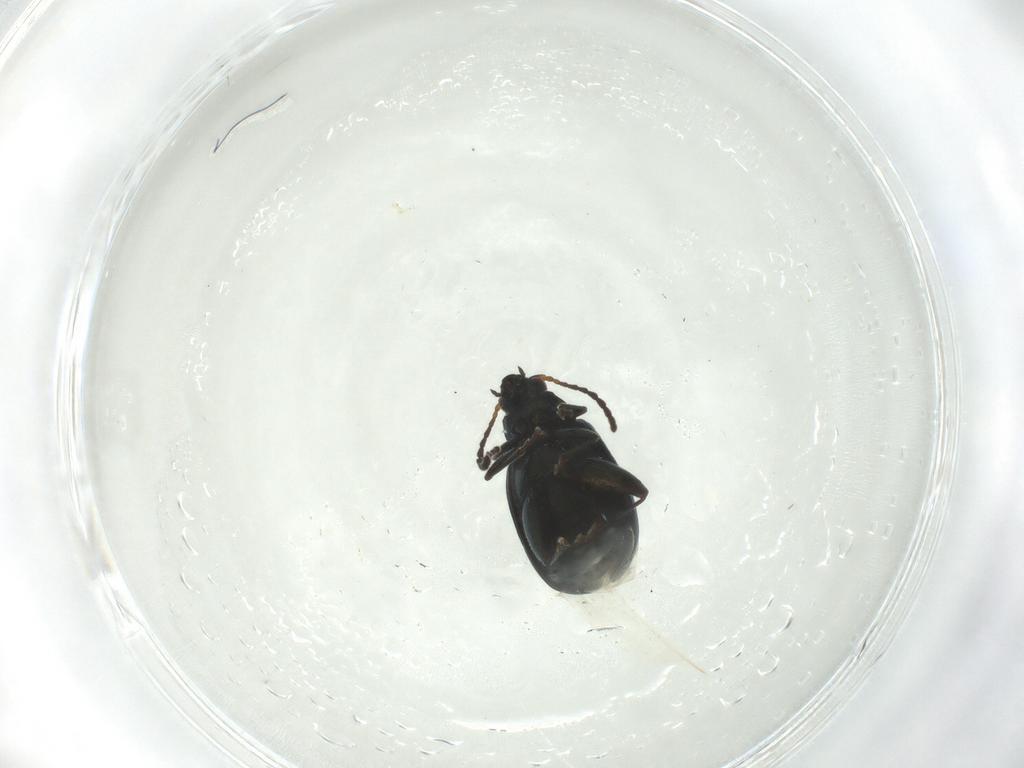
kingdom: Animalia
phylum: Arthropoda
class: Insecta
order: Coleoptera
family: Chrysomelidae
